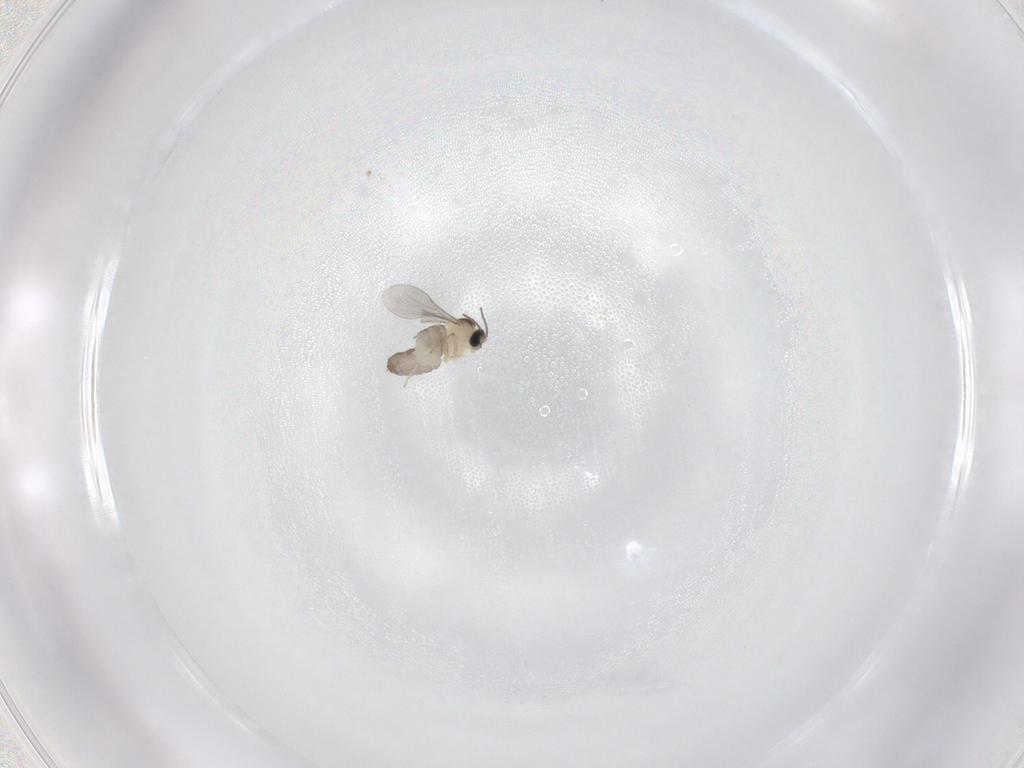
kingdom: Animalia
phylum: Arthropoda
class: Insecta
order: Diptera
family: Cecidomyiidae
